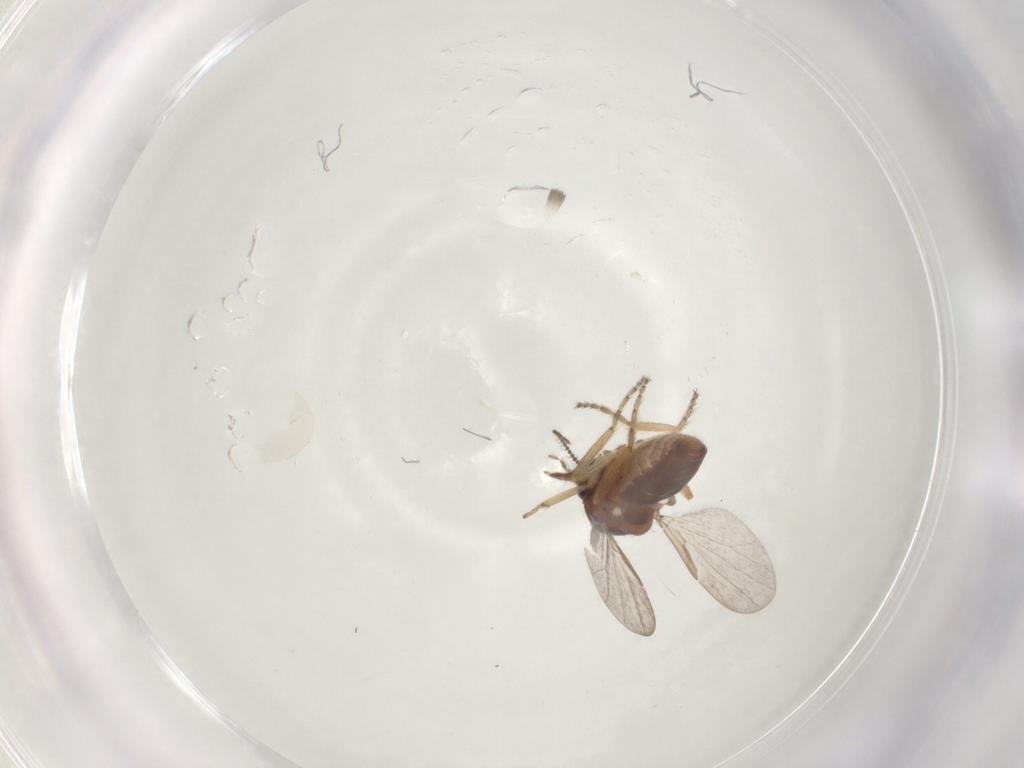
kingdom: Animalia
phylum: Arthropoda
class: Insecta
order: Diptera
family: Ceratopogonidae
